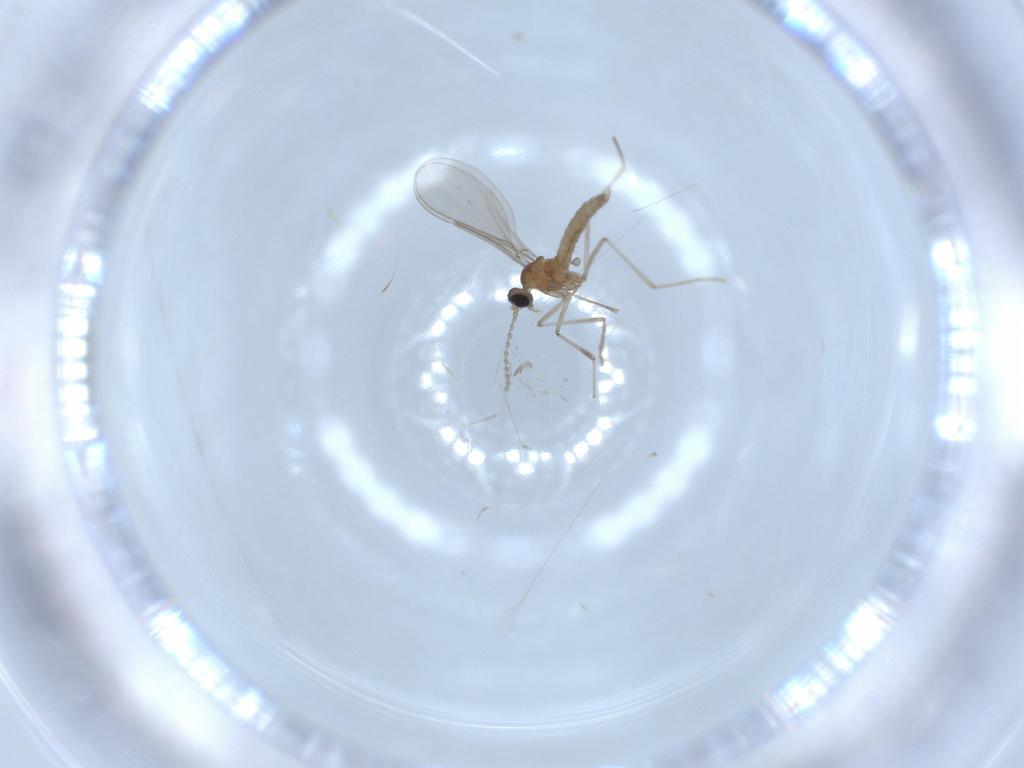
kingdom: Animalia
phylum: Arthropoda
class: Insecta
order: Diptera
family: Cecidomyiidae
